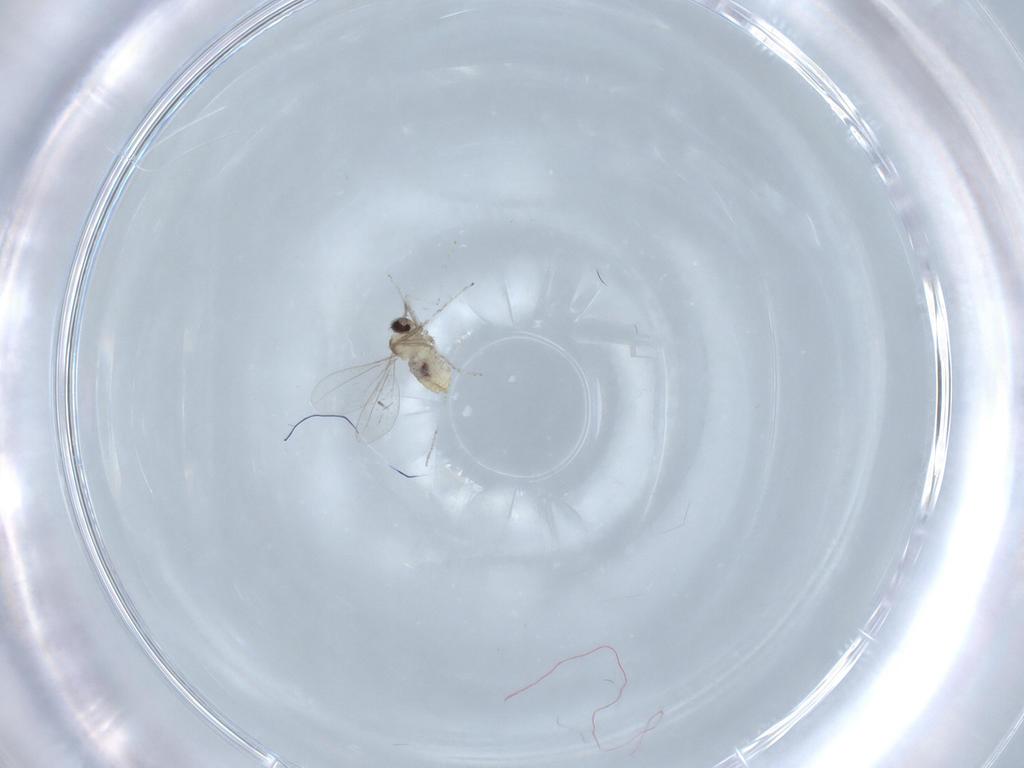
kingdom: Animalia
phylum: Arthropoda
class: Insecta
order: Diptera
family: Cecidomyiidae
